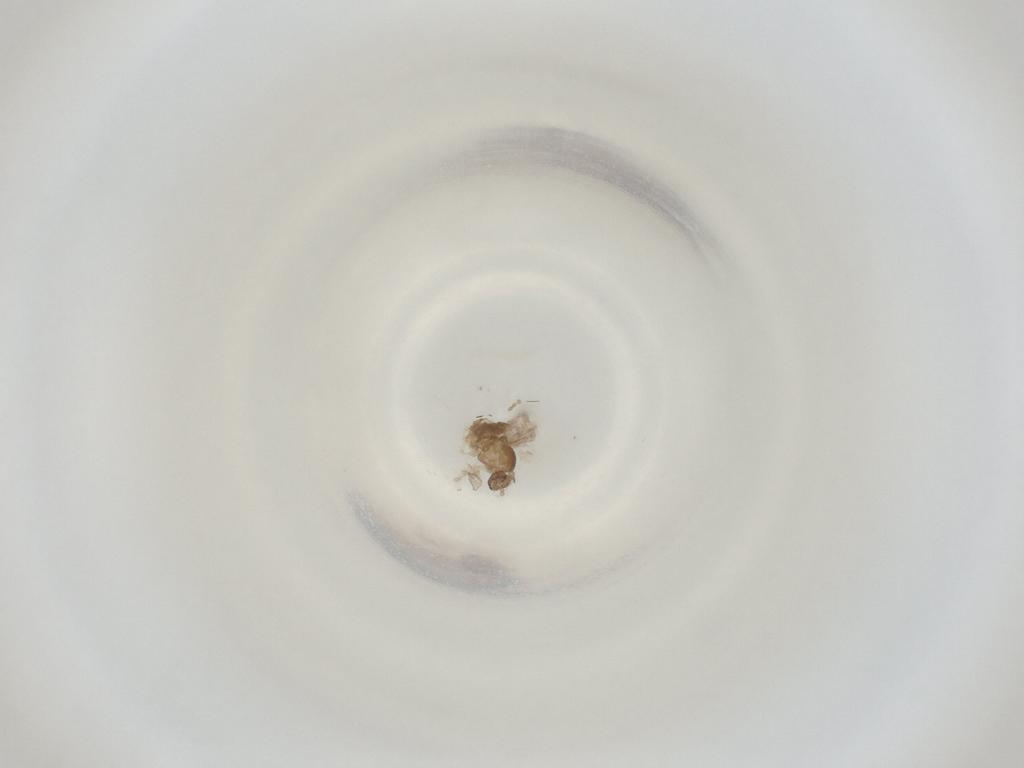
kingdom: Animalia
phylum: Arthropoda
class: Insecta
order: Diptera
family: Cecidomyiidae
